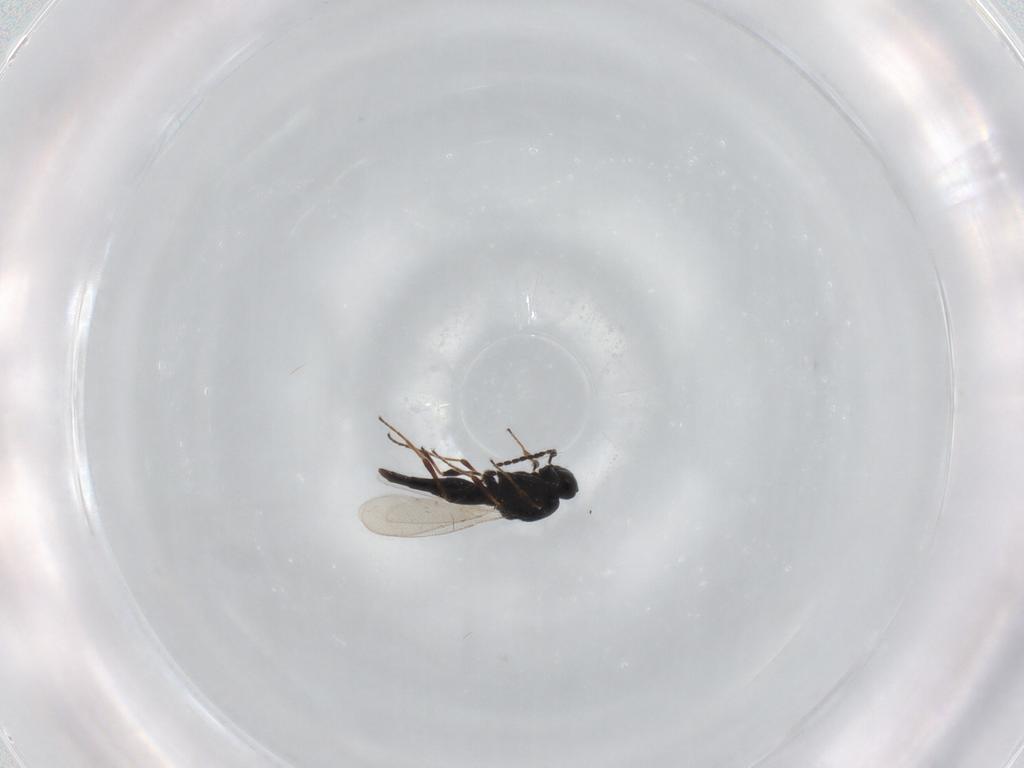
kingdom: Animalia
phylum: Arthropoda
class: Insecta
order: Hymenoptera
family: Platygastridae
